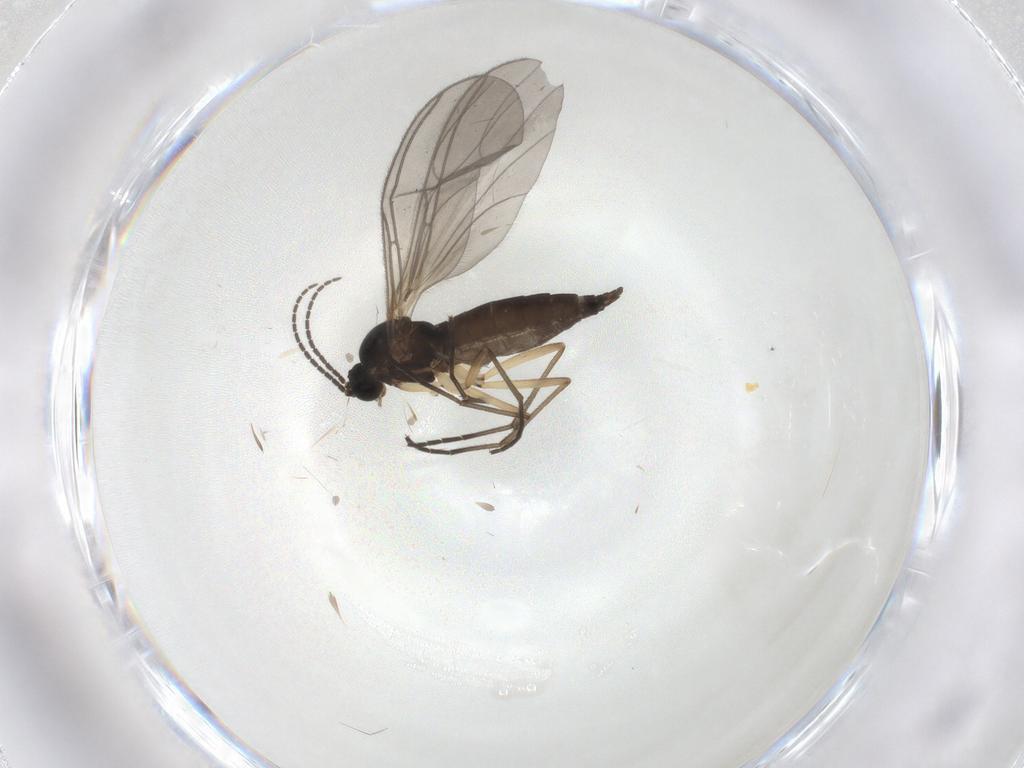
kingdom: Animalia
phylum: Arthropoda
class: Insecta
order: Diptera
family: Sciaridae
